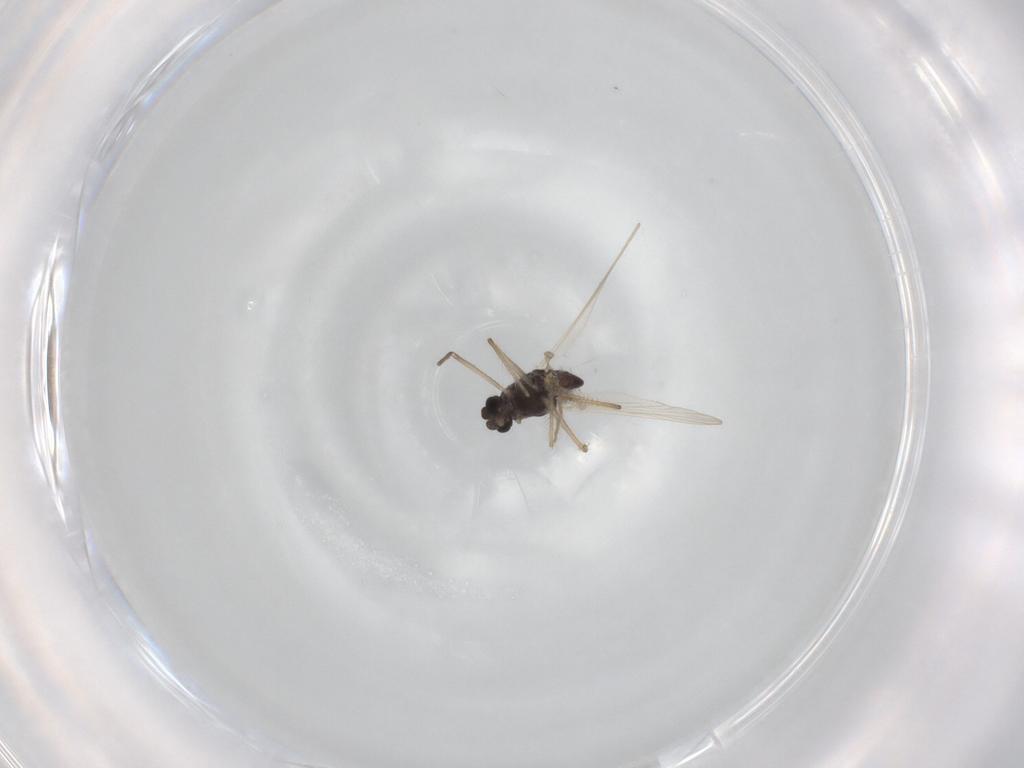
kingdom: Animalia
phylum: Arthropoda
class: Insecta
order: Diptera
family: Chironomidae
